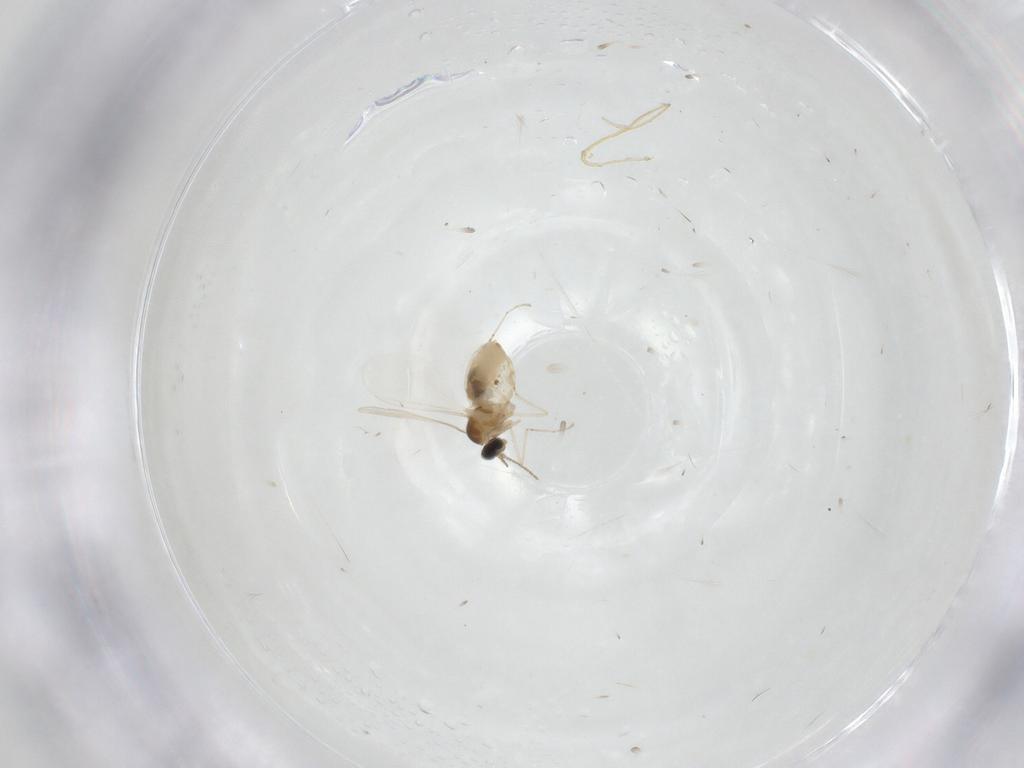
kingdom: Animalia
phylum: Arthropoda
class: Insecta
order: Diptera
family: Cecidomyiidae
